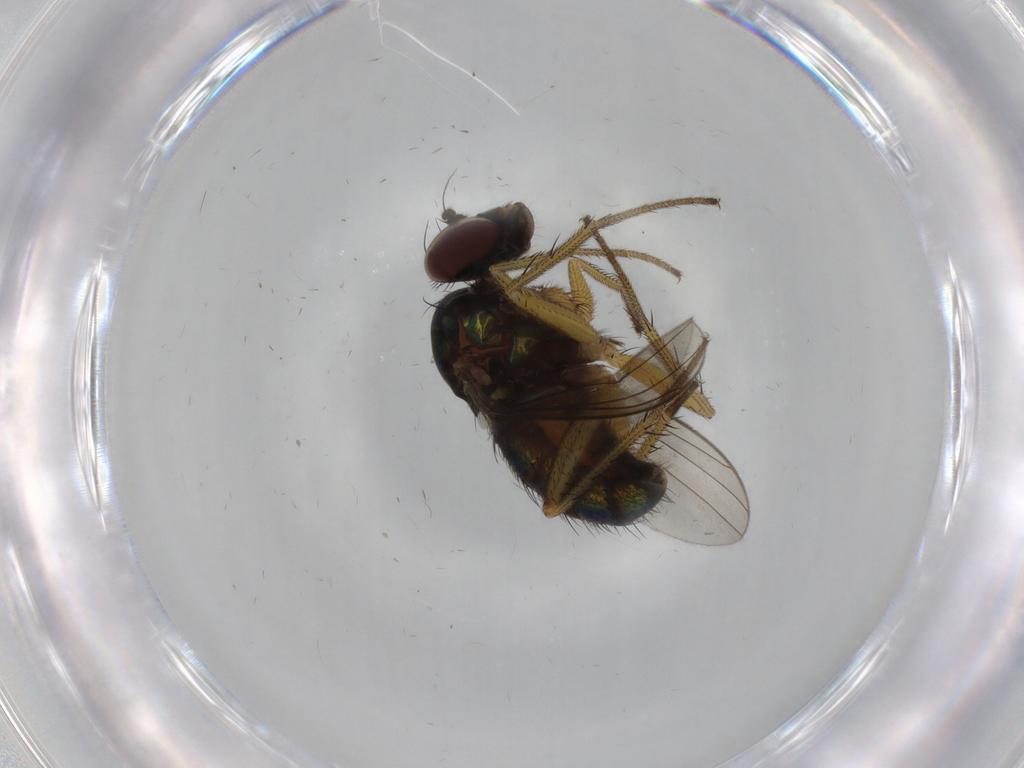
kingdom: Animalia
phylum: Arthropoda
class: Insecta
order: Diptera
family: Dolichopodidae
